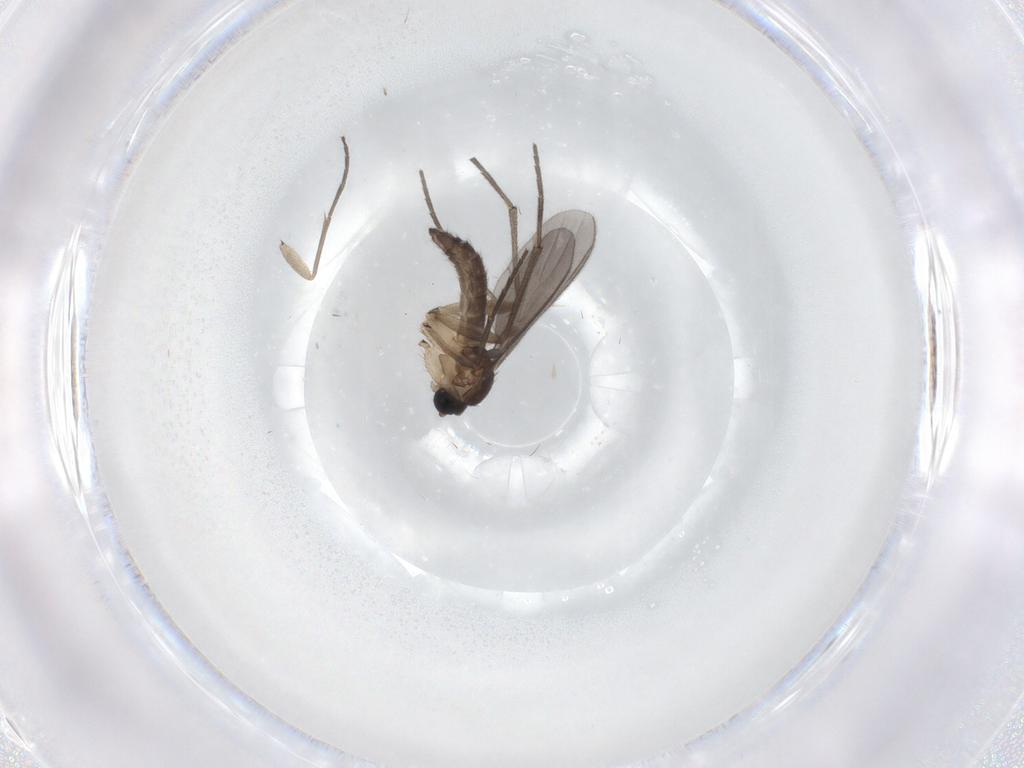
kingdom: Animalia
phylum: Arthropoda
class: Insecta
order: Diptera
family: Sciaridae
